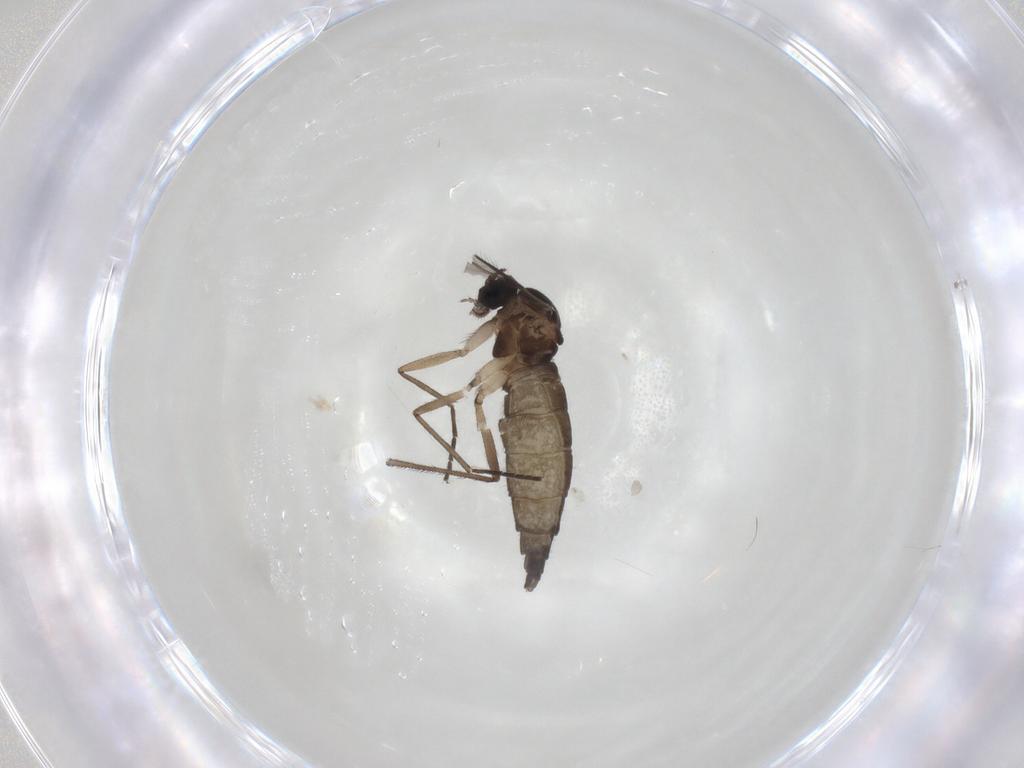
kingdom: Animalia
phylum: Arthropoda
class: Insecta
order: Diptera
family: Sciaridae
